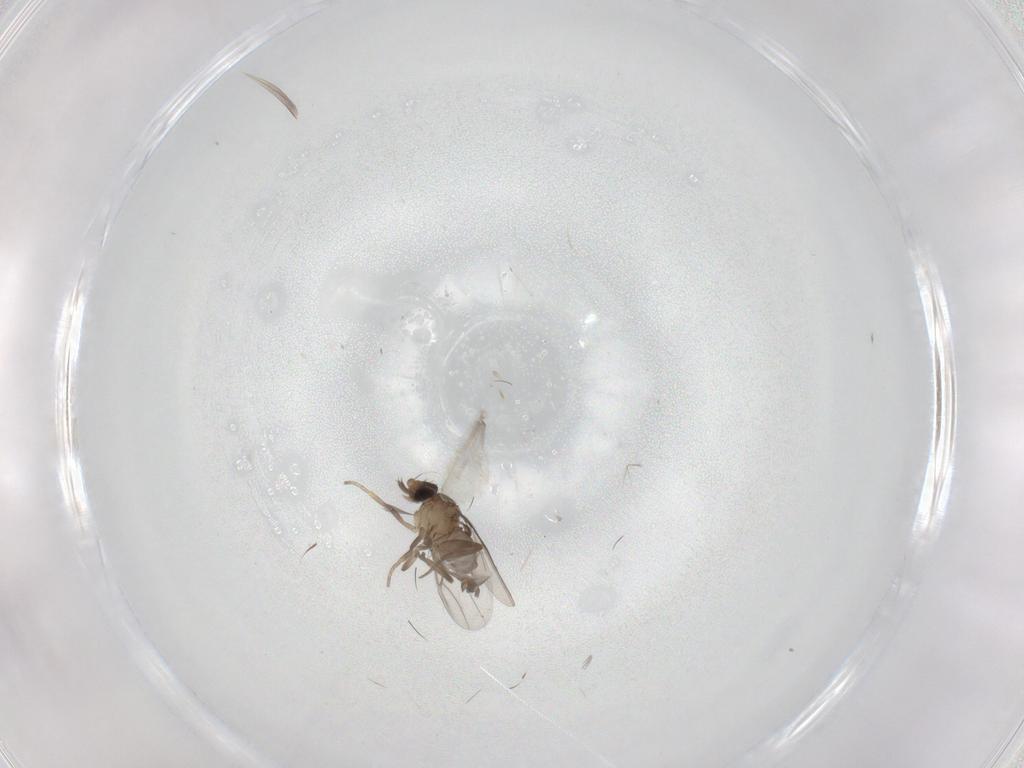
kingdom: Animalia
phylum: Arthropoda
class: Insecta
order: Diptera
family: Phoridae
